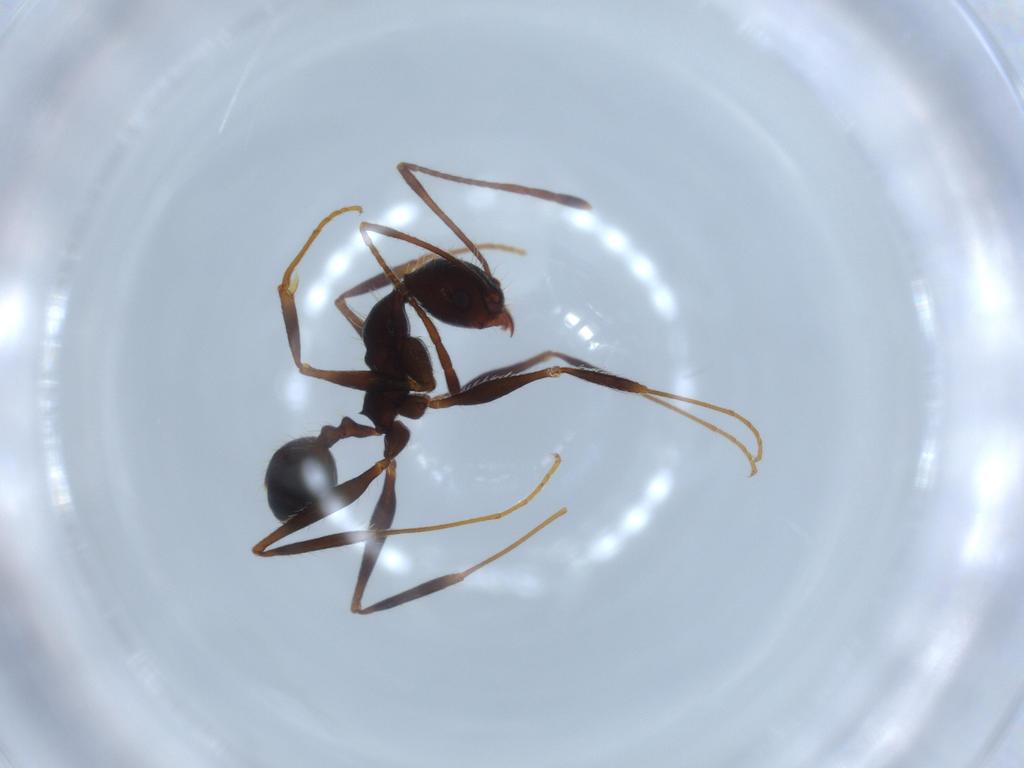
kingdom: Animalia
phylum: Arthropoda
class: Insecta
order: Hymenoptera
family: Formicidae
